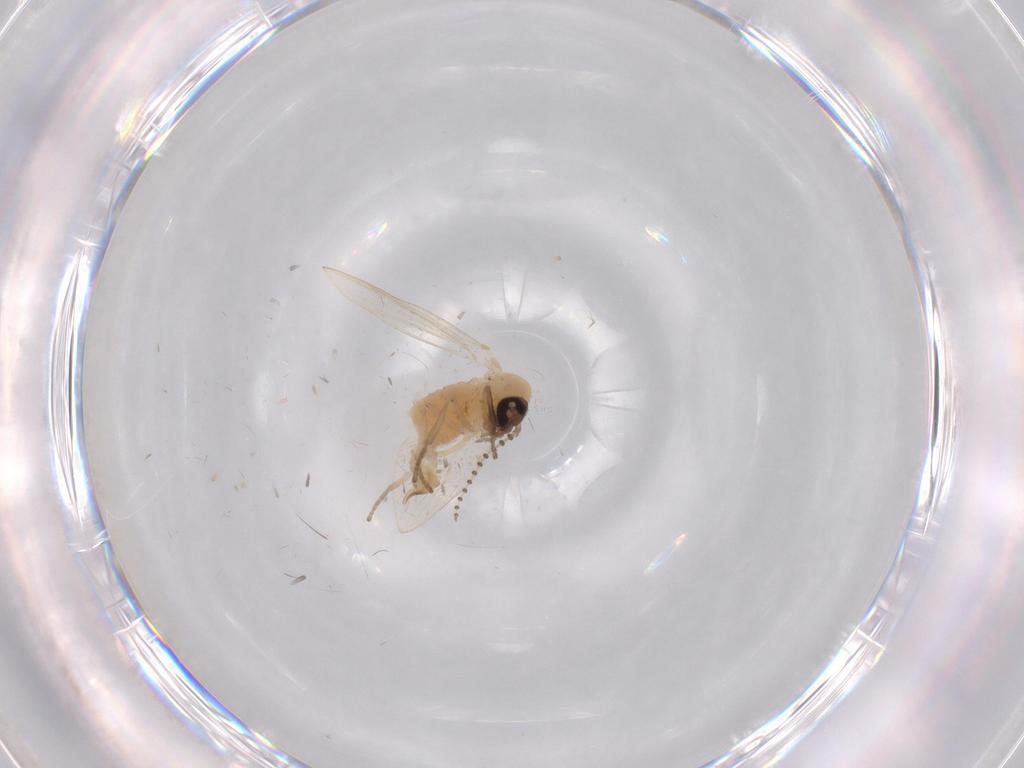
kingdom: Animalia
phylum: Arthropoda
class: Insecta
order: Diptera
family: Psychodidae
